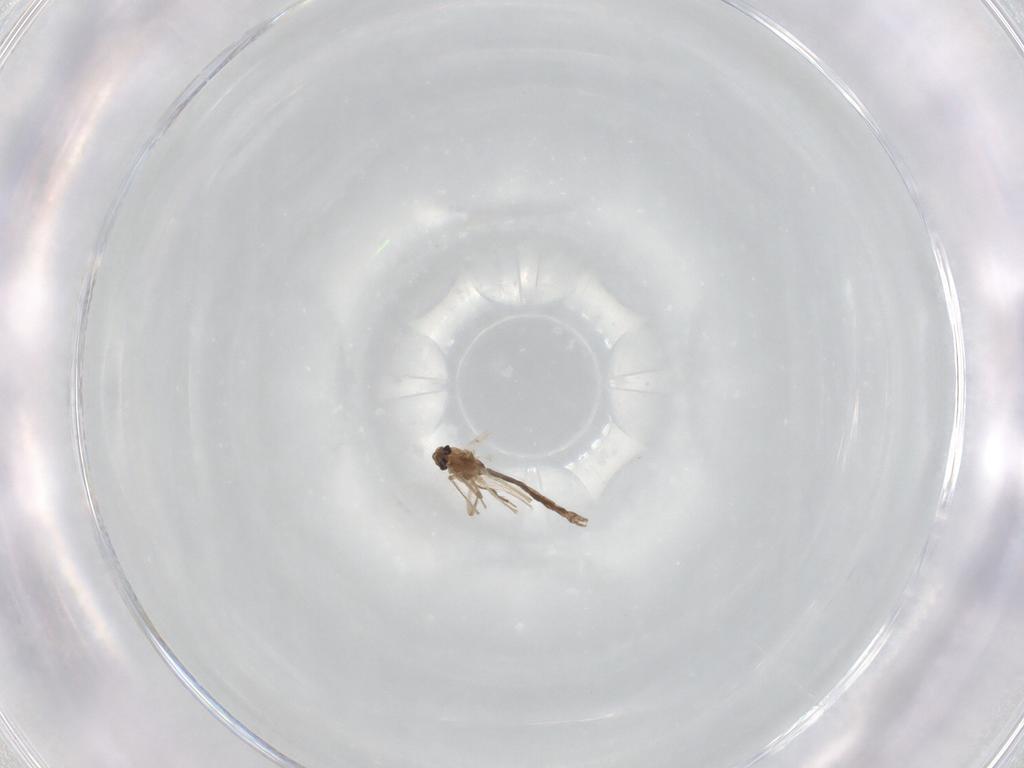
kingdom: Animalia
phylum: Arthropoda
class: Insecta
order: Diptera
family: Chironomidae
